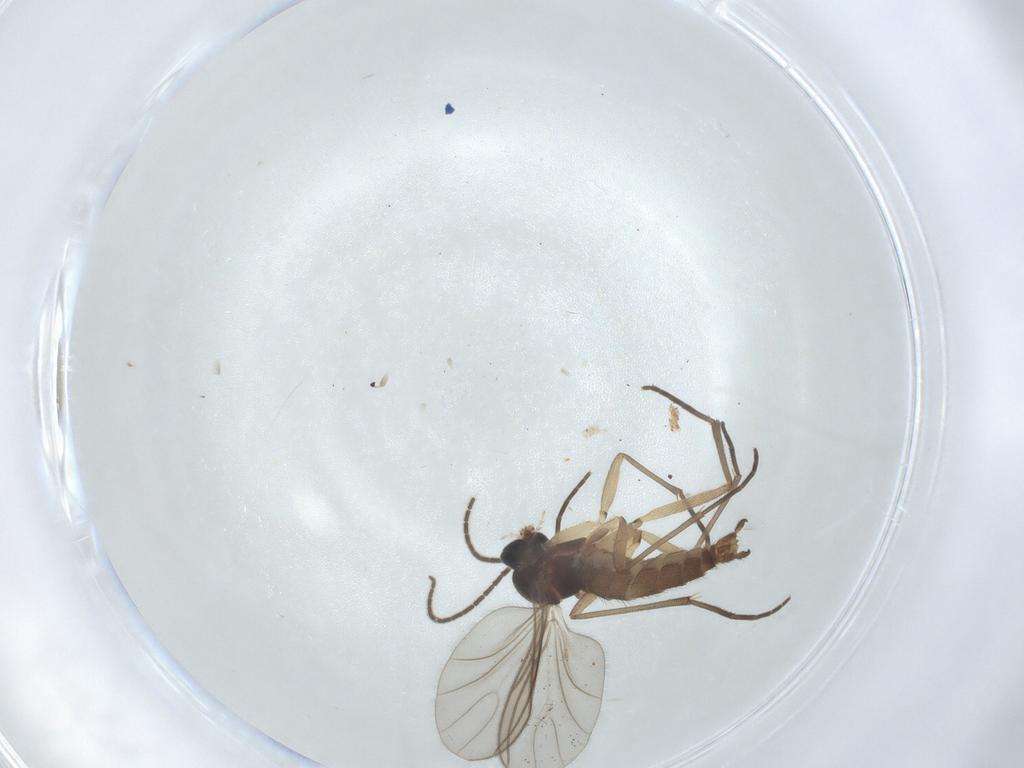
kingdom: Animalia
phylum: Arthropoda
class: Insecta
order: Diptera
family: Sciaridae
